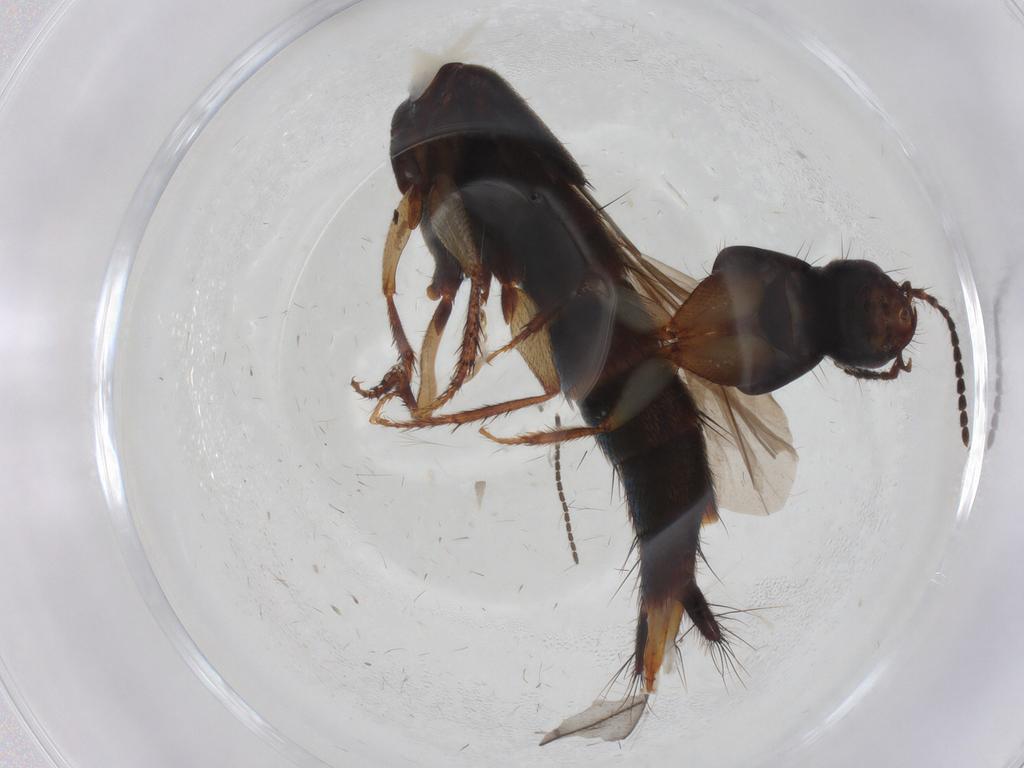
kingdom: Animalia
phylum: Arthropoda
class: Insecta
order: Coleoptera
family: Staphylinidae
